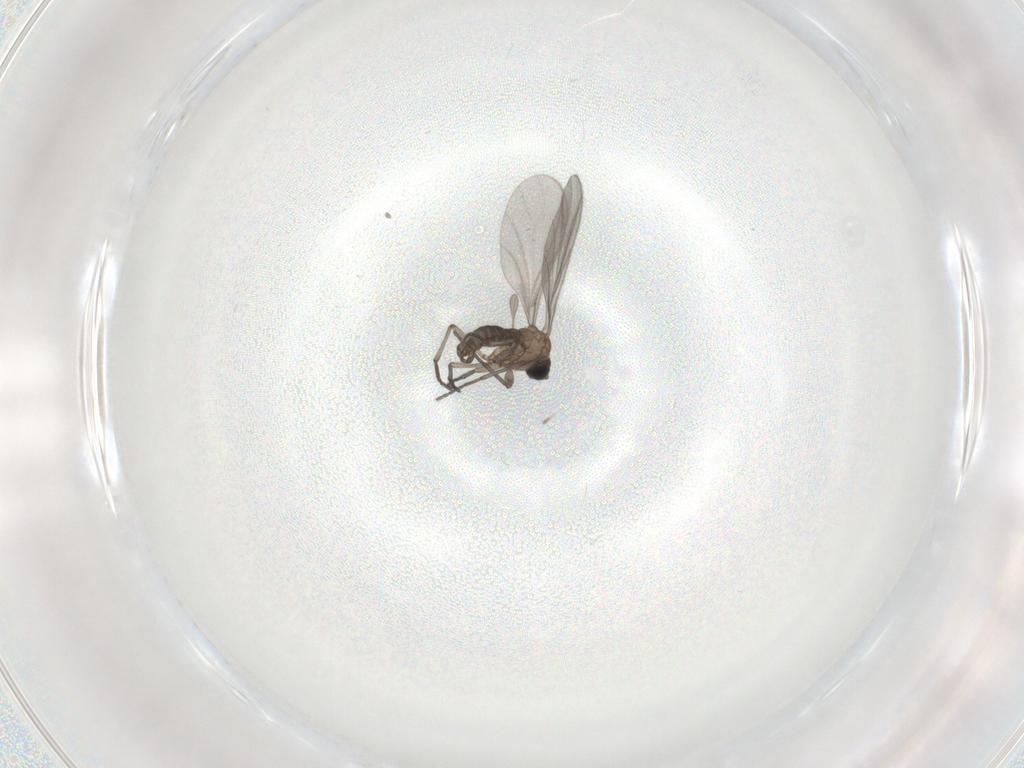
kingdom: Animalia
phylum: Arthropoda
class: Insecta
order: Diptera
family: Sciaridae
